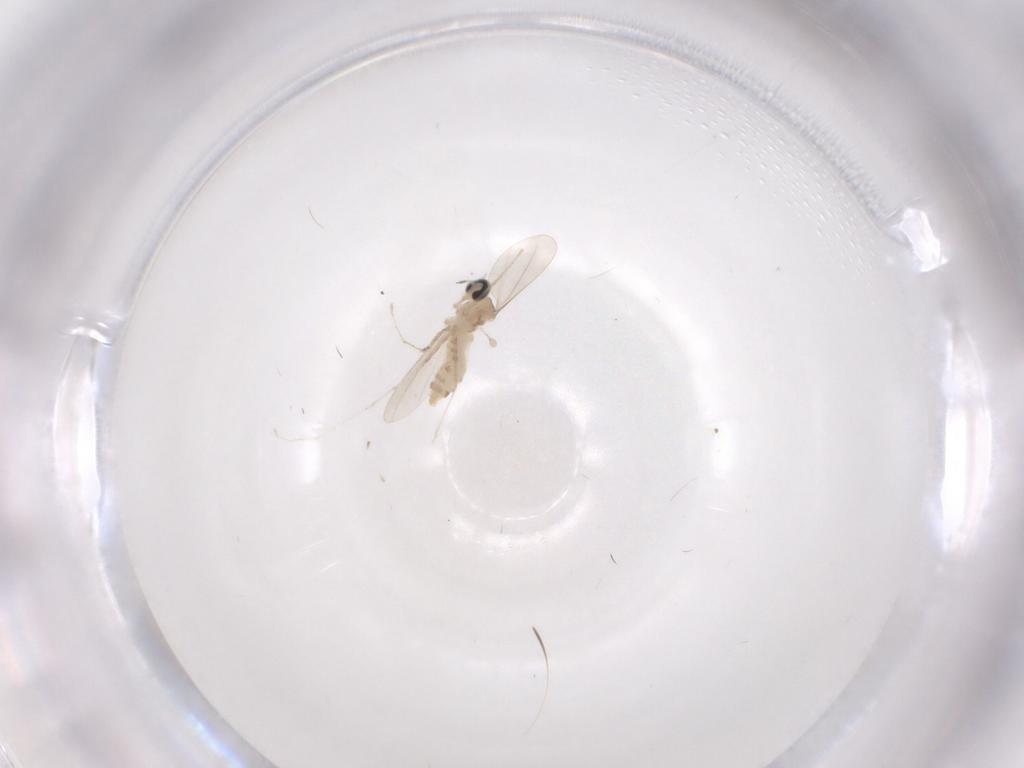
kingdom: Animalia
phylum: Arthropoda
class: Insecta
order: Diptera
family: Cecidomyiidae
